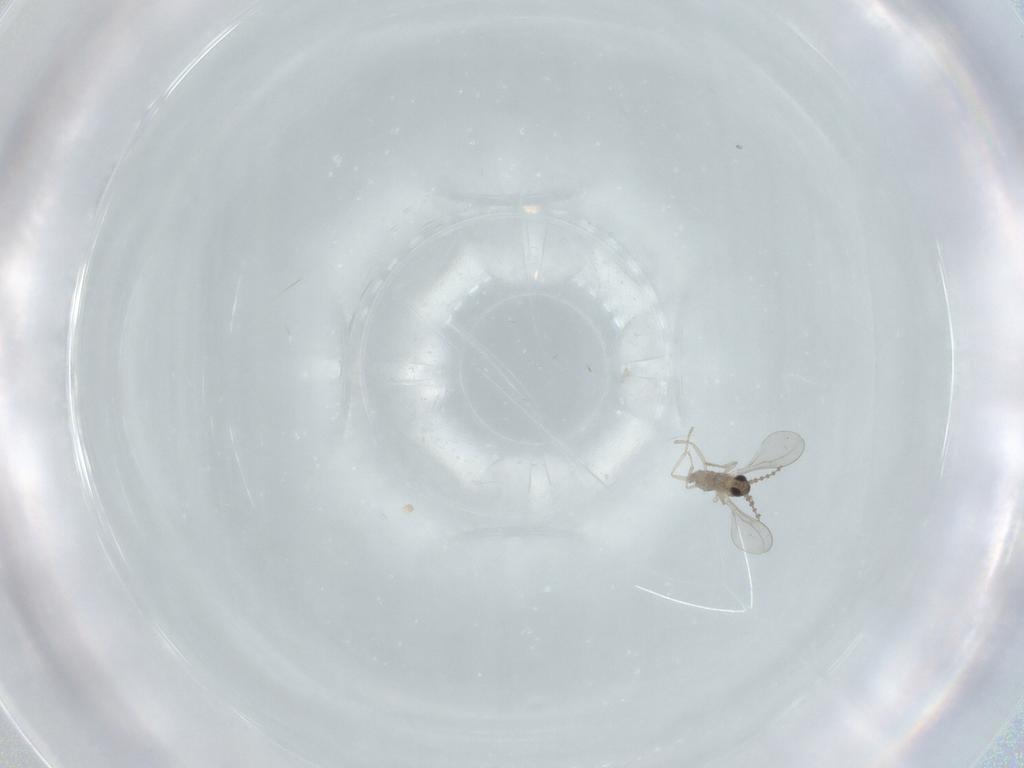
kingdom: Animalia
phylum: Arthropoda
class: Insecta
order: Diptera
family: Cecidomyiidae
